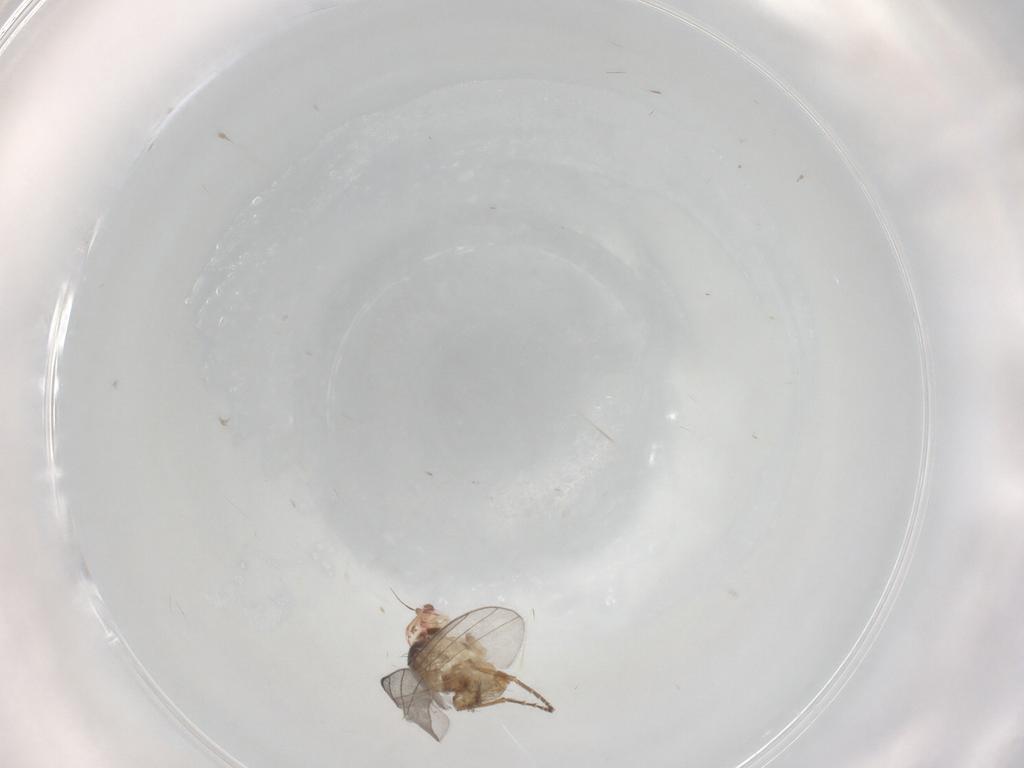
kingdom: Animalia
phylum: Arthropoda
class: Insecta
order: Diptera
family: Agromyzidae
